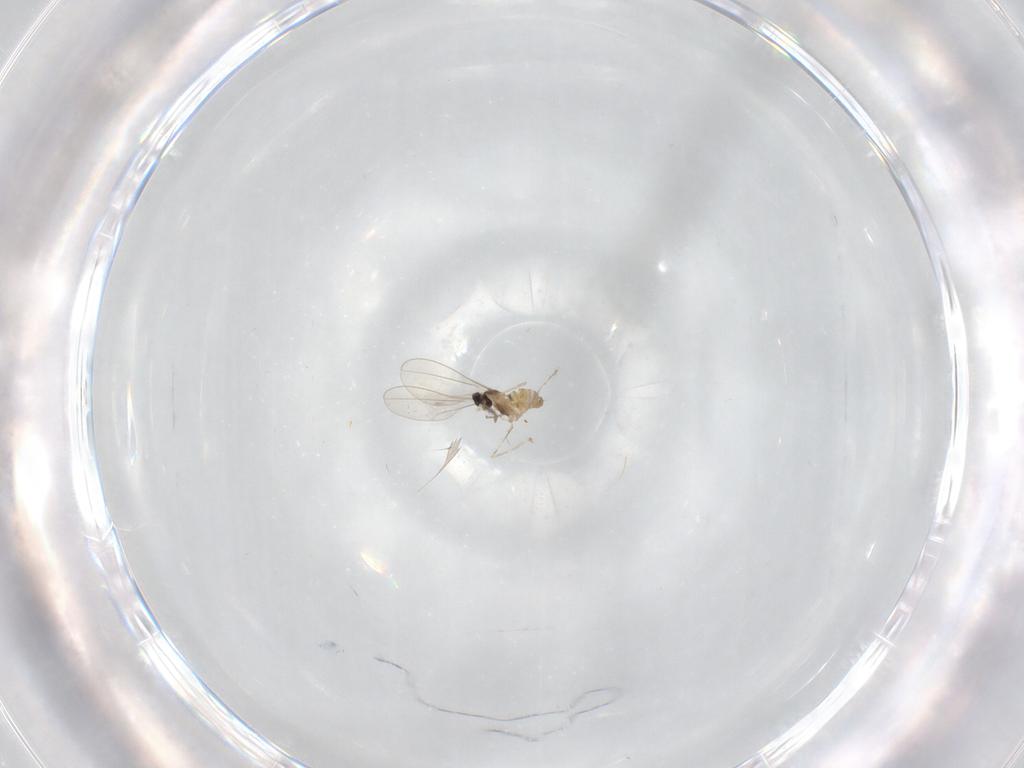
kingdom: Animalia
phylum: Arthropoda
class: Insecta
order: Diptera
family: Cecidomyiidae
